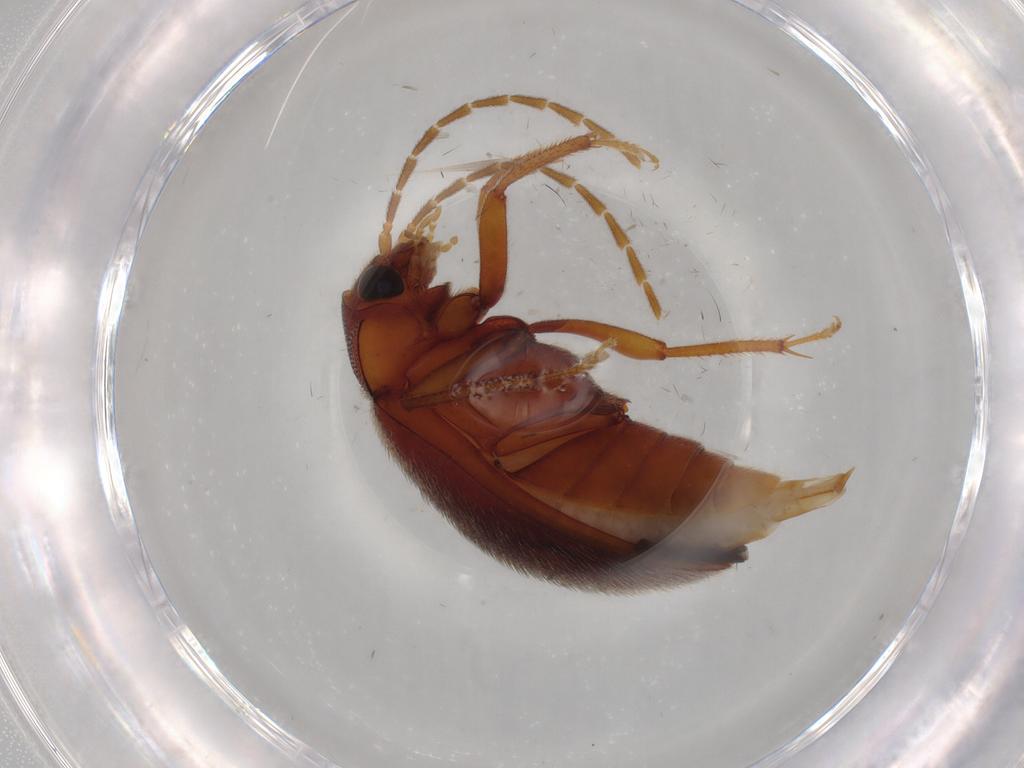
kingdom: Animalia
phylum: Arthropoda
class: Insecta
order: Coleoptera
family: Ptilodactylidae
